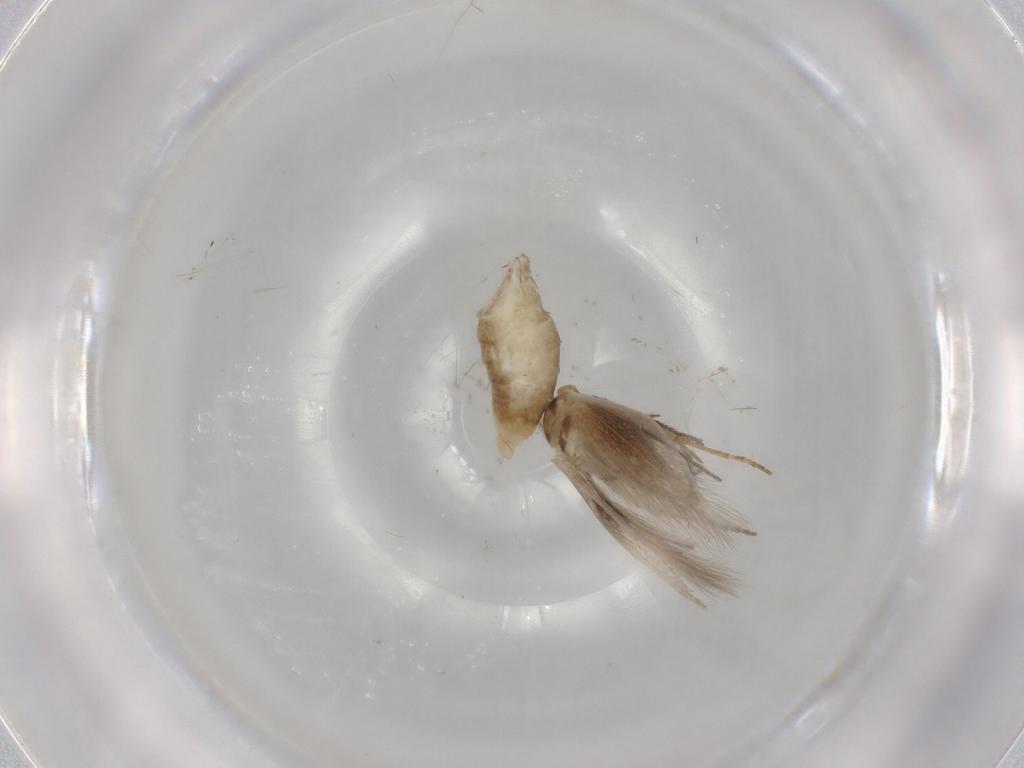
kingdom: Animalia
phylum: Arthropoda
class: Insecta
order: Lepidoptera
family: Bucculatricidae
